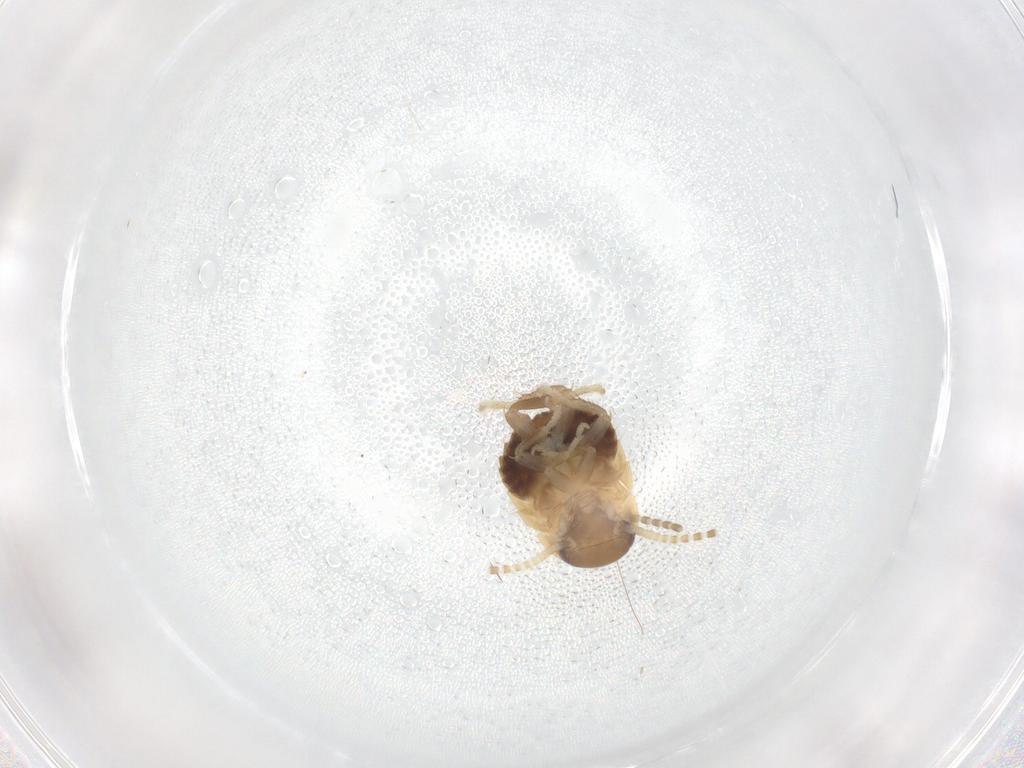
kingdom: Animalia
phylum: Arthropoda
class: Insecta
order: Blattodea
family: Ectobiidae
